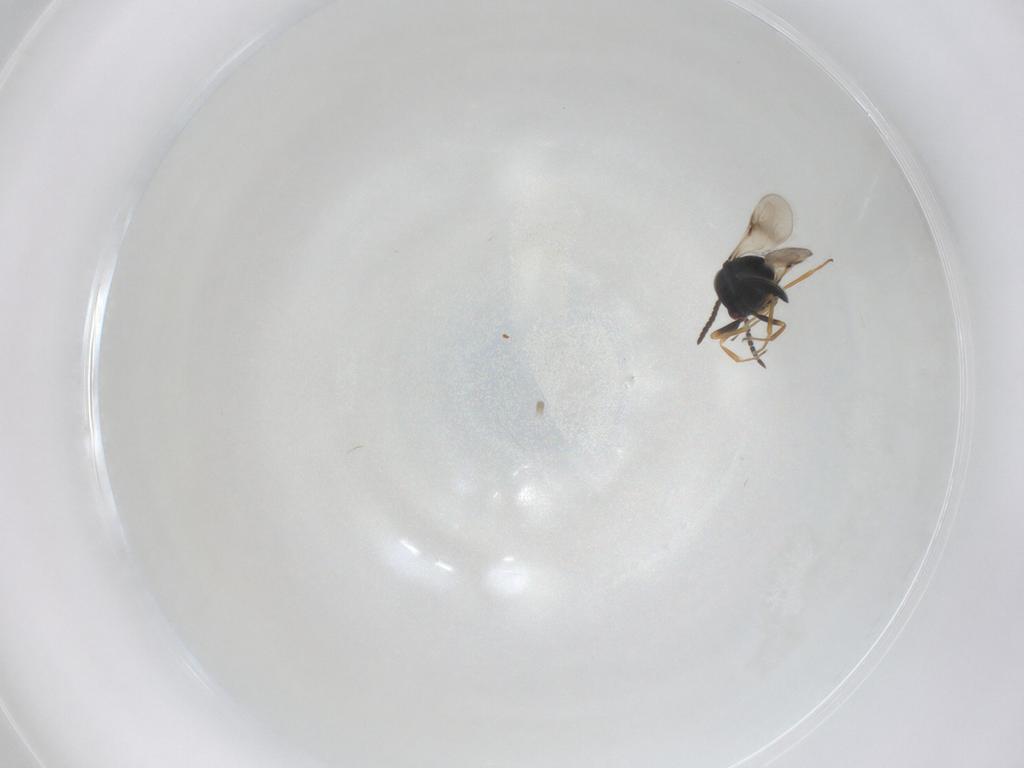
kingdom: Animalia
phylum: Arthropoda
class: Insecta
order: Hymenoptera
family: Scelionidae
